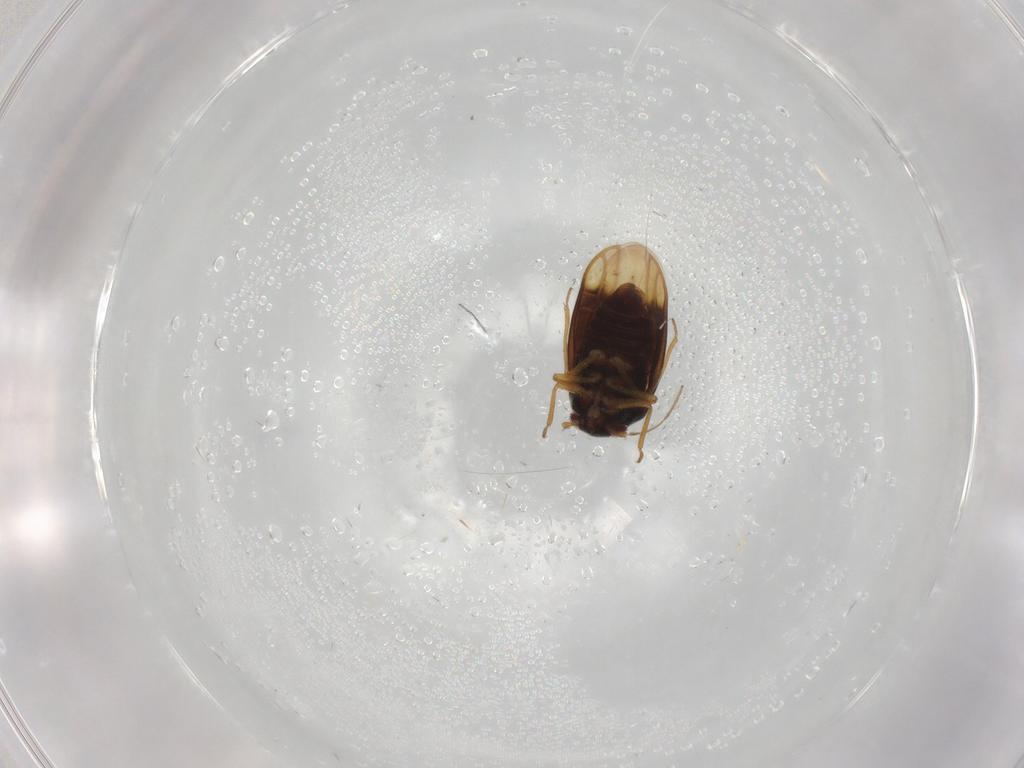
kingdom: Animalia
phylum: Arthropoda
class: Insecta
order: Hemiptera
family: Schizopteridae
